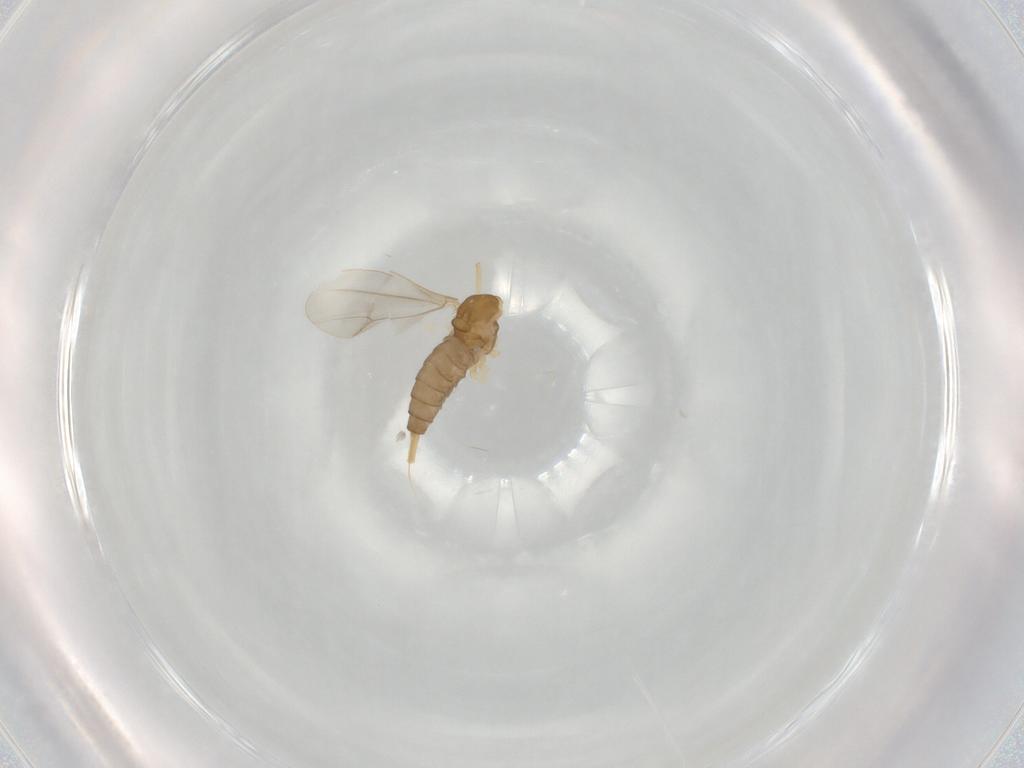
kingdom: Animalia
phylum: Arthropoda
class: Insecta
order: Diptera
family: Cecidomyiidae
